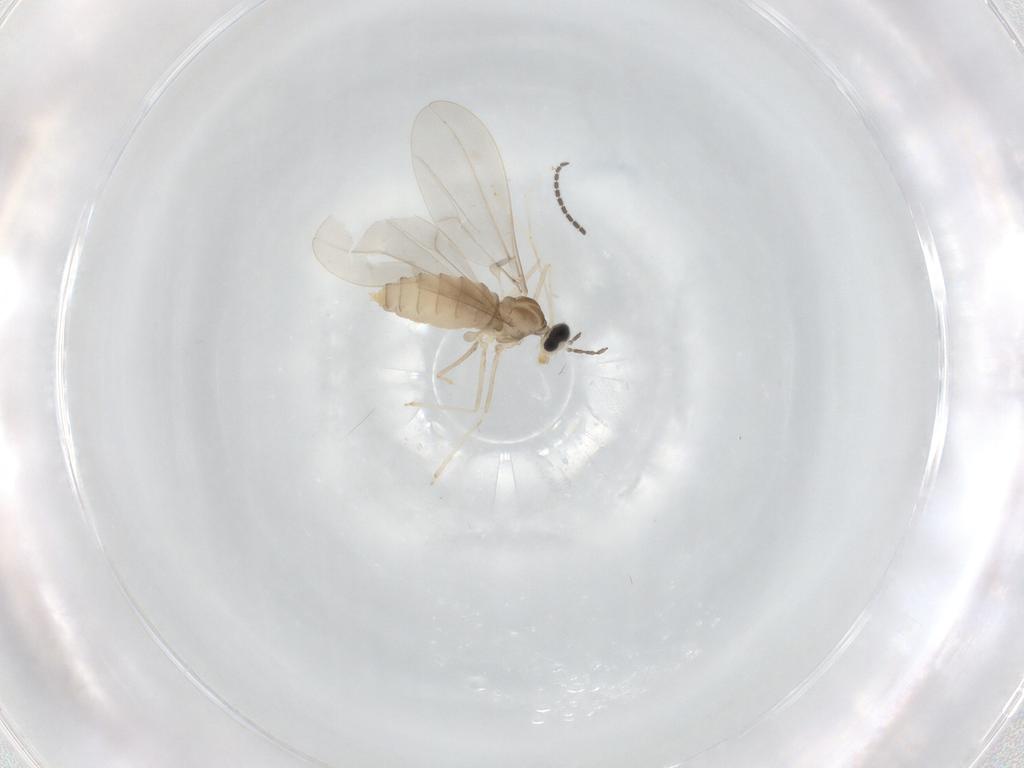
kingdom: Animalia
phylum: Arthropoda
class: Insecta
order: Diptera
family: Cecidomyiidae
